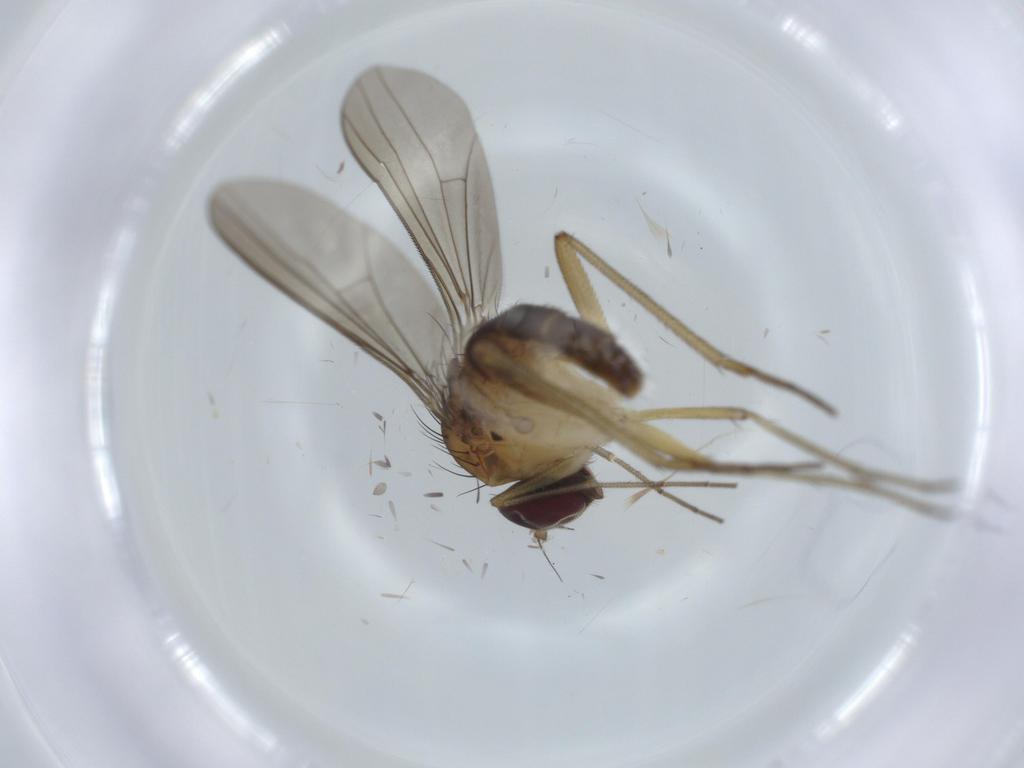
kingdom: Animalia
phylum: Arthropoda
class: Insecta
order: Diptera
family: Dolichopodidae
